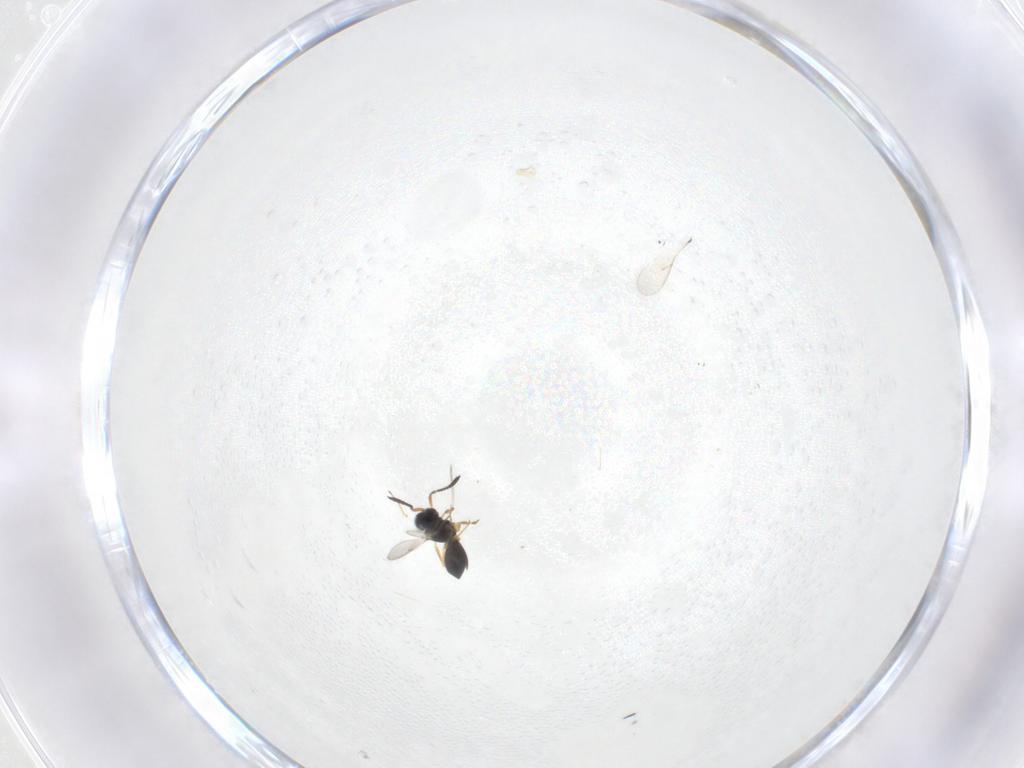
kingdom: Animalia
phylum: Arthropoda
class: Insecta
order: Hymenoptera
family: Scelionidae
